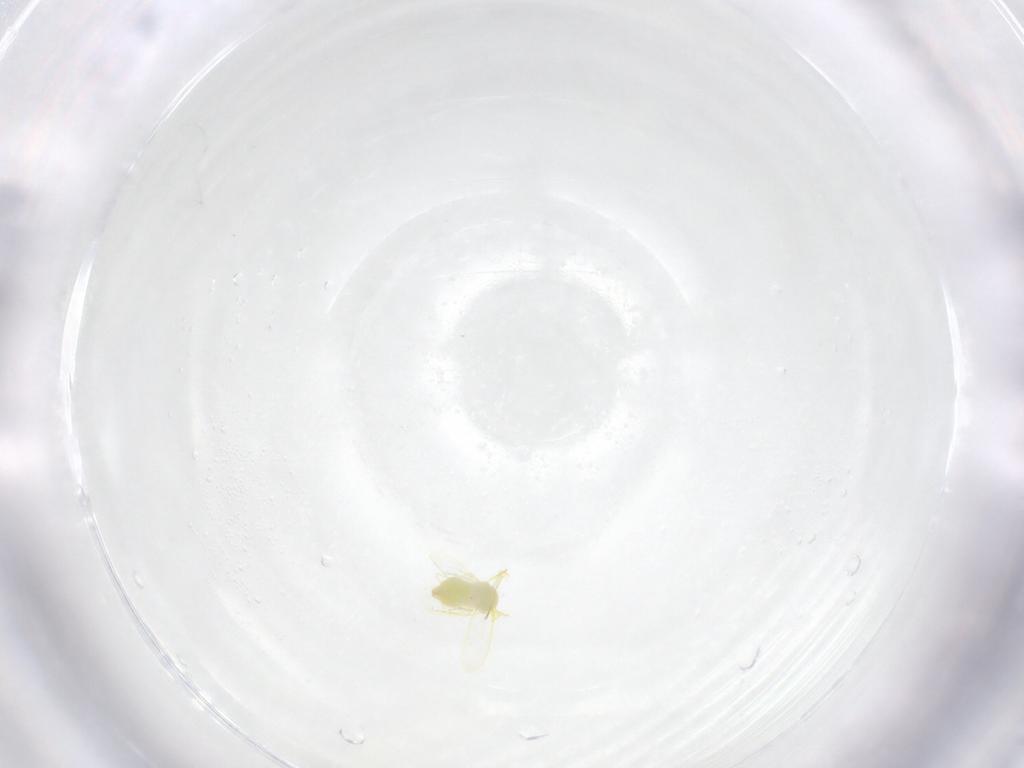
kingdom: Animalia
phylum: Arthropoda
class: Insecta
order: Hemiptera
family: Aleyrodidae
